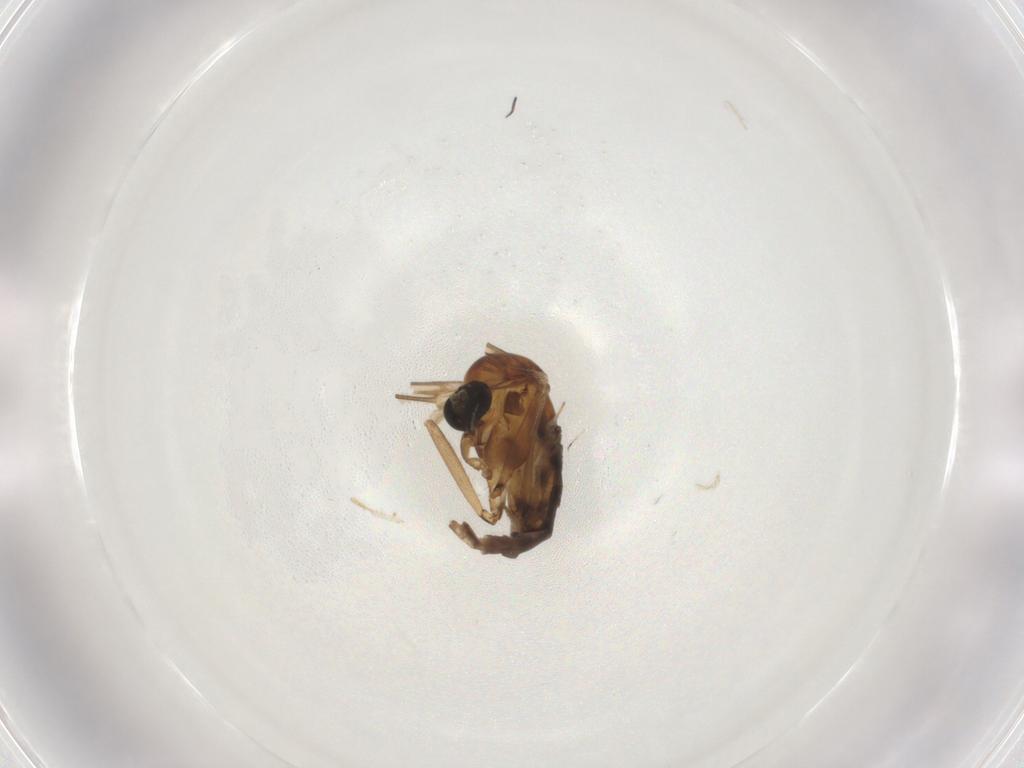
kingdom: Animalia
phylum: Arthropoda
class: Insecta
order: Diptera
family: Sciaridae
